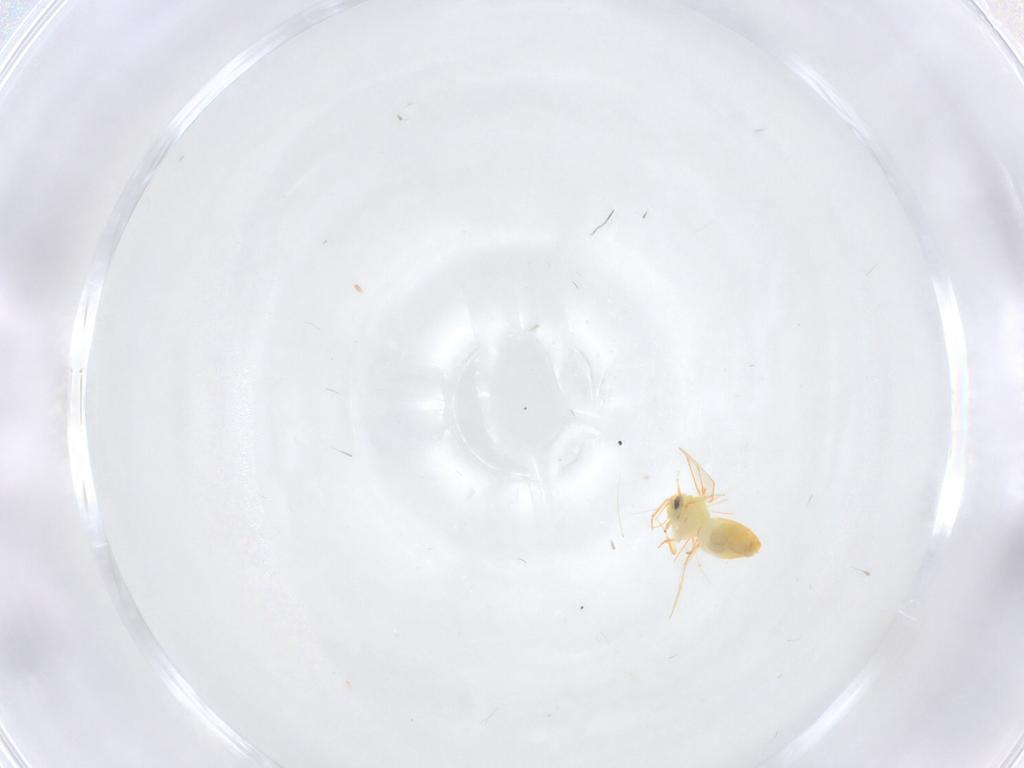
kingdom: Animalia
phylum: Arthropoda
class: Insecta
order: Hemiptera
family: Aleyrodidae
